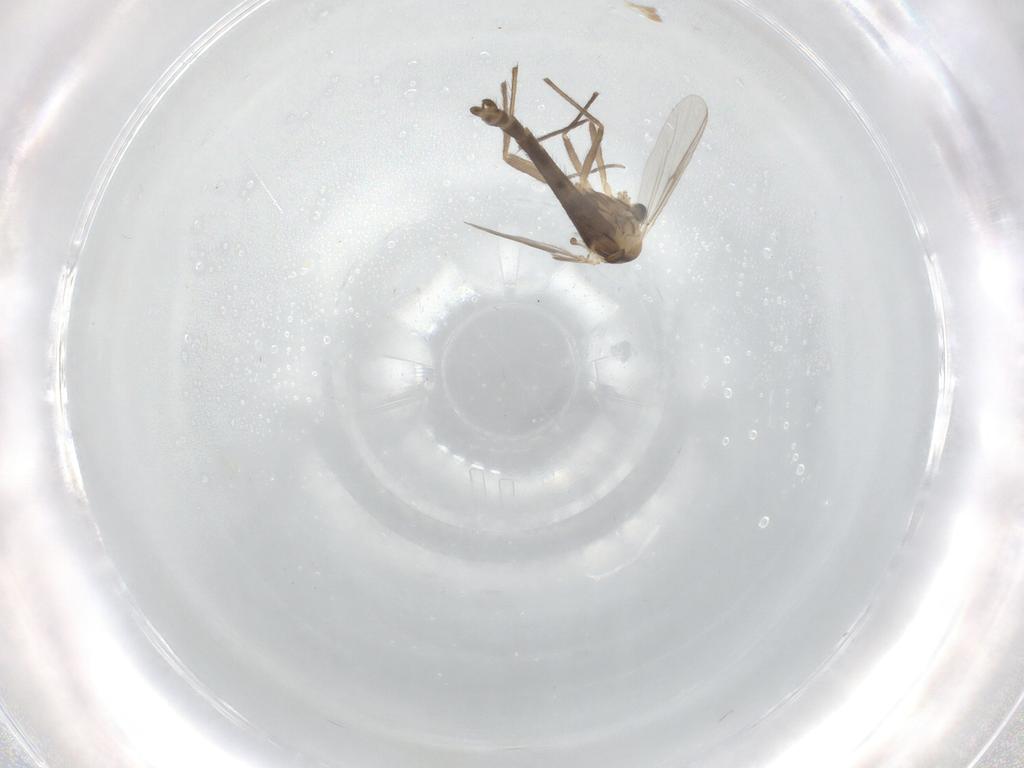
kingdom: Animalia
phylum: Arthropoda
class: Insecta
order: Diptera
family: Chironomidae
